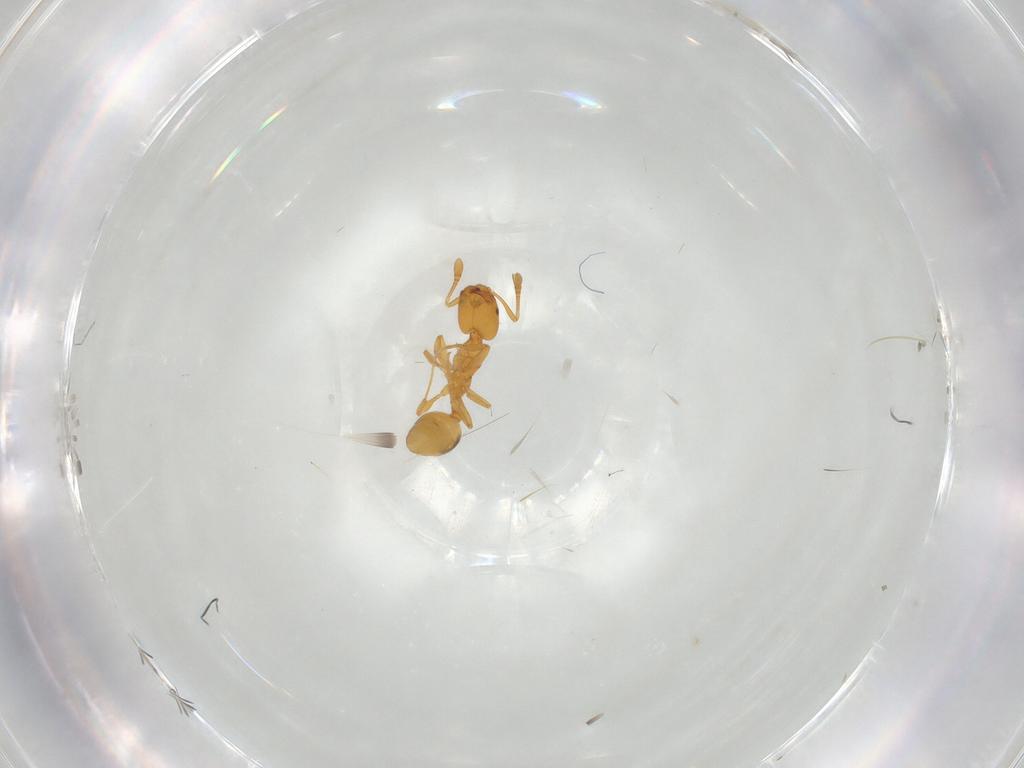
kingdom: Animalia
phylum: Arthropoda
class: Insecta
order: Hymenoptera
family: Formicidae
